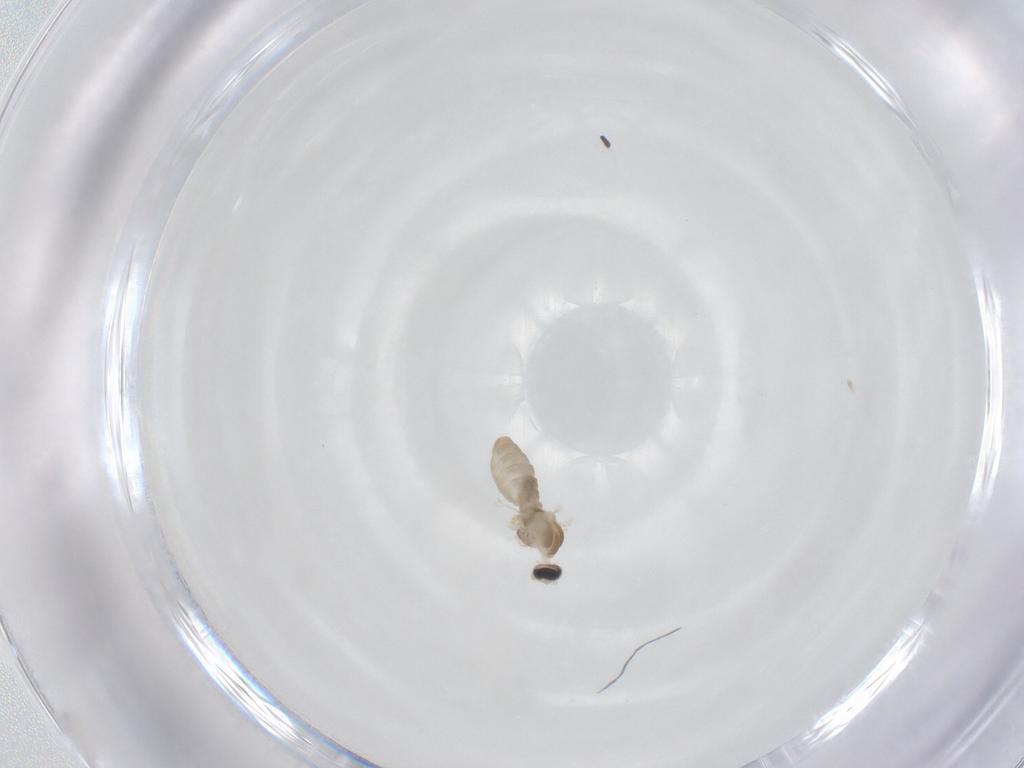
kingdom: Animalia
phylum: Arthropoda
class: Insecta
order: Diptera
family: Cecidomyiidae
